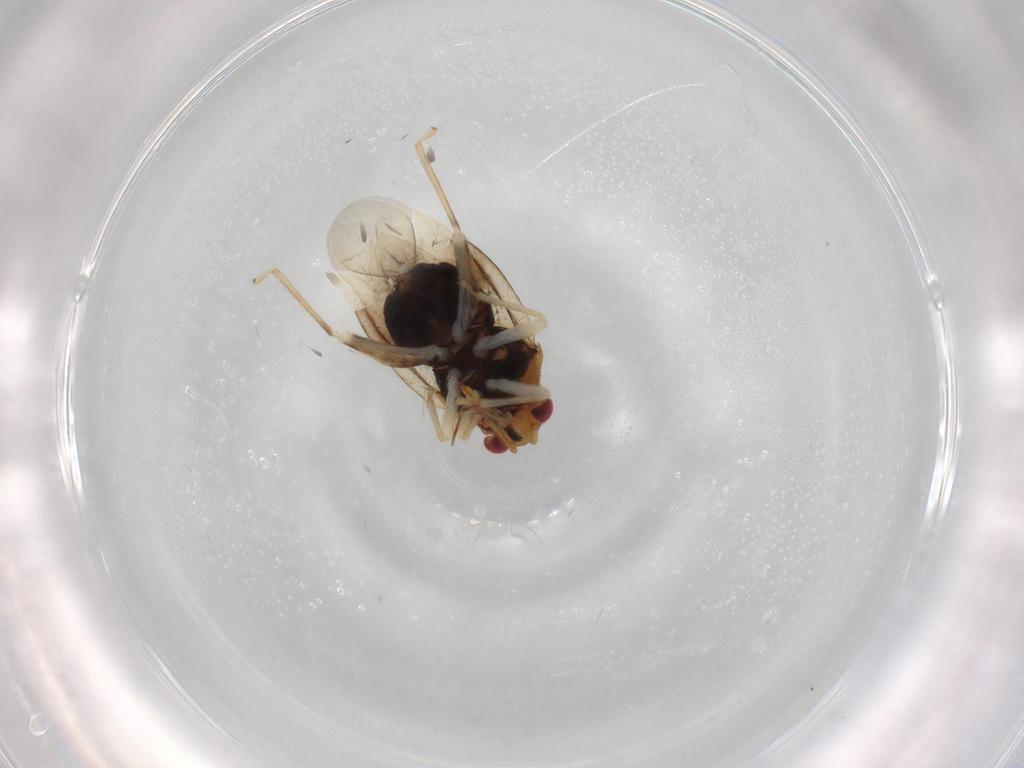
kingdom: Animalia
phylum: Arthropoda
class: Insecta
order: Hemiptera
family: Miridae
